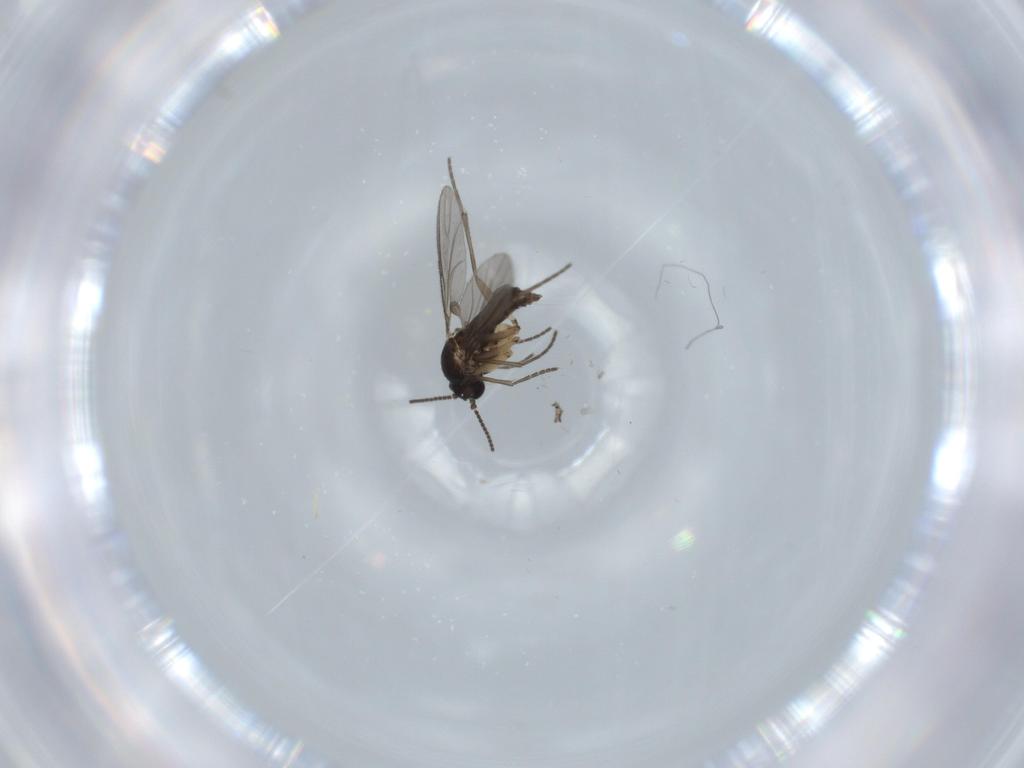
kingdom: Animalia
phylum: Arthropoda
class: Insecta
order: Diptera
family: Sciaridae
